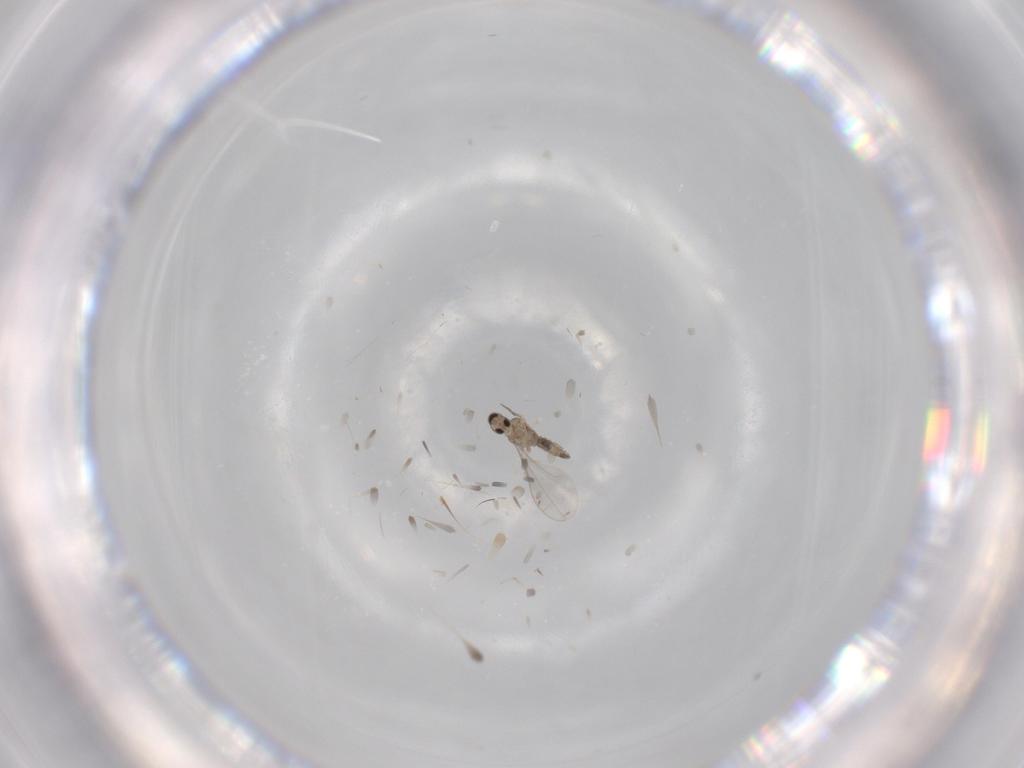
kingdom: Animalia
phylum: Arthropoda
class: Insecta
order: Diptera
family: Cecidomyiidae
